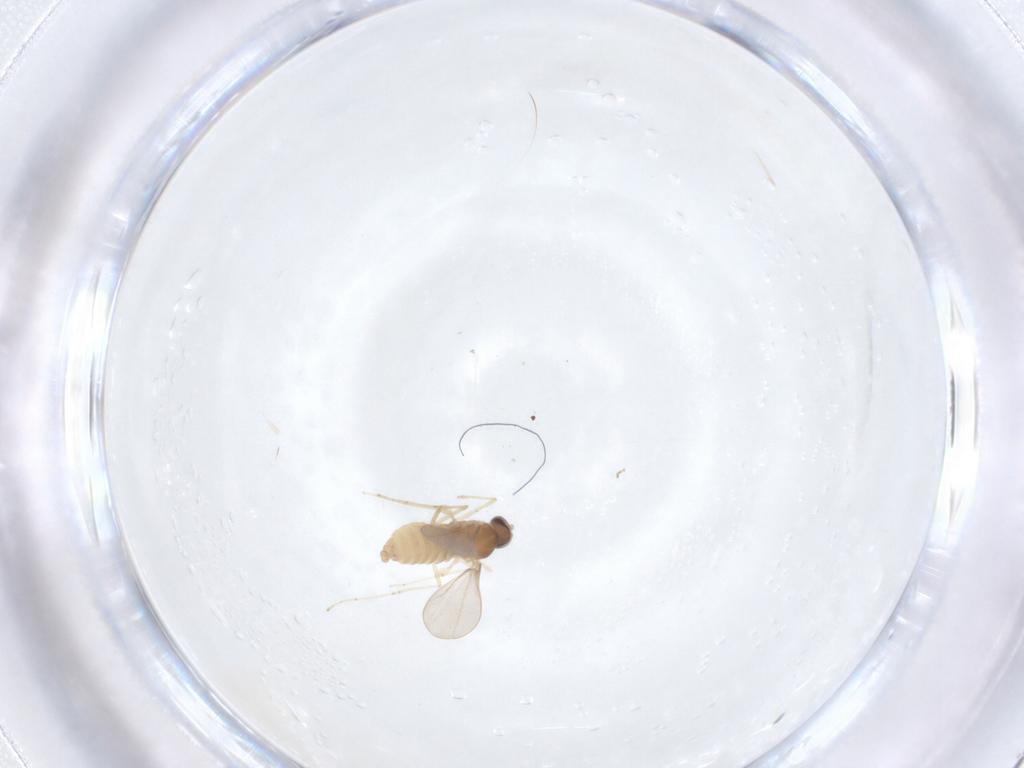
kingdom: Animalia
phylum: Arthropoda
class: Insecta
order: Diptera
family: Cecidomyiidae
